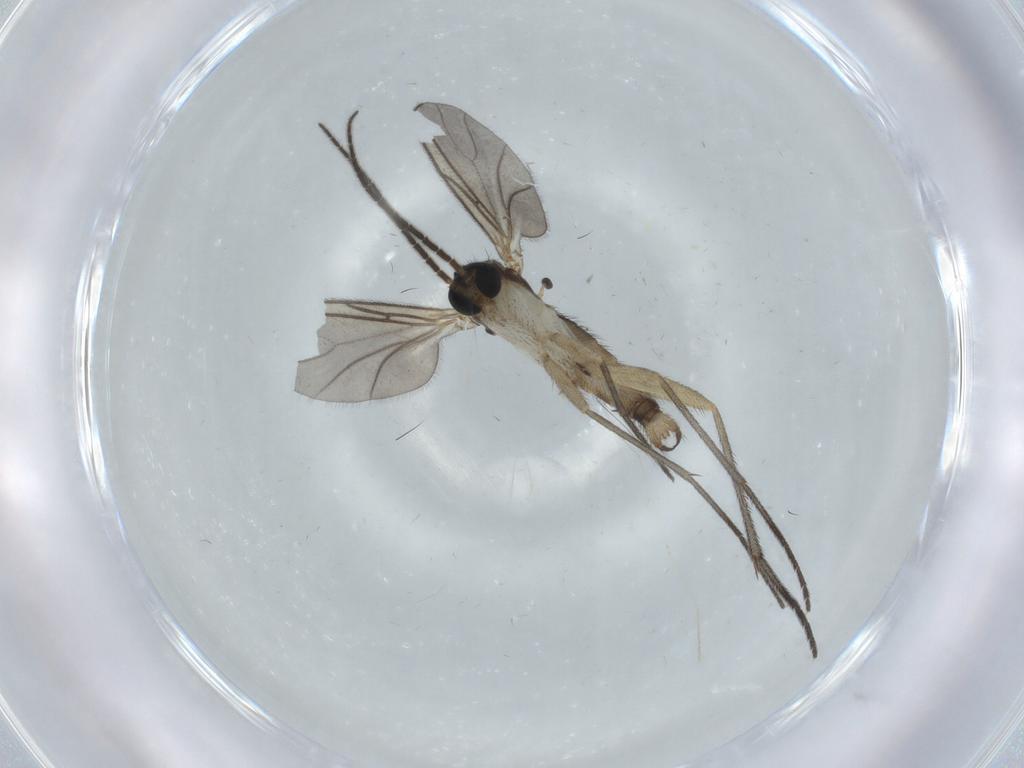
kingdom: Animalia
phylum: Arthropoda
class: Insecta
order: Diptera
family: Sciaridae
